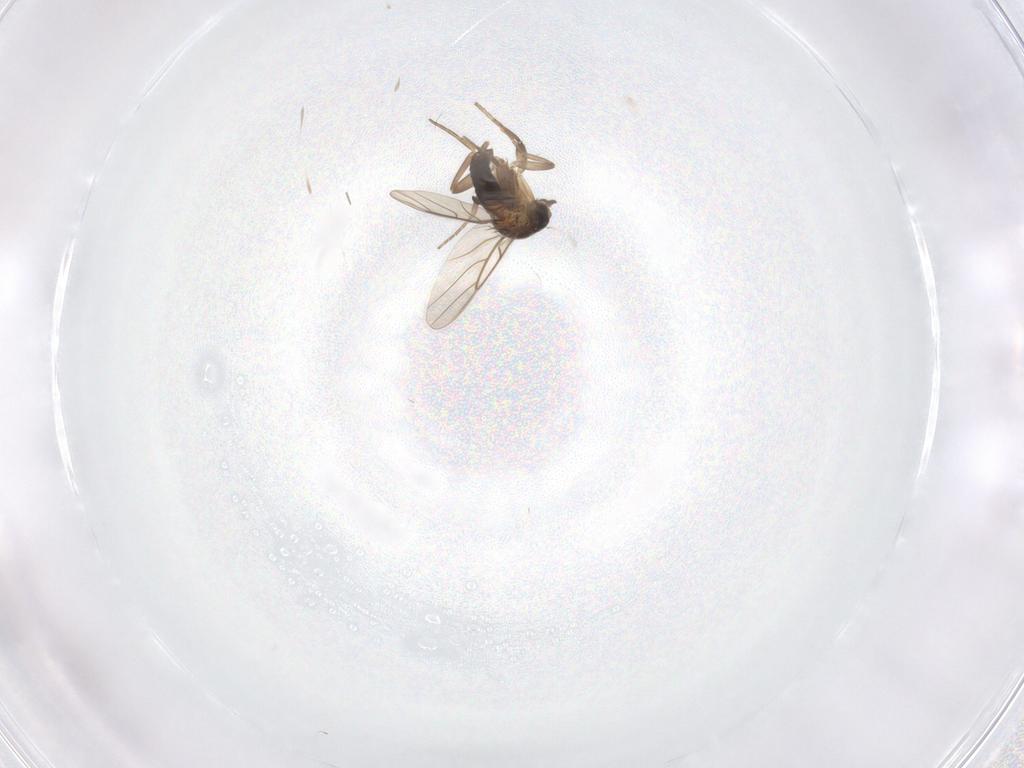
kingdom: Animalia
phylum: Arthropoda
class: Insecta
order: Diptera
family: Phoridae
